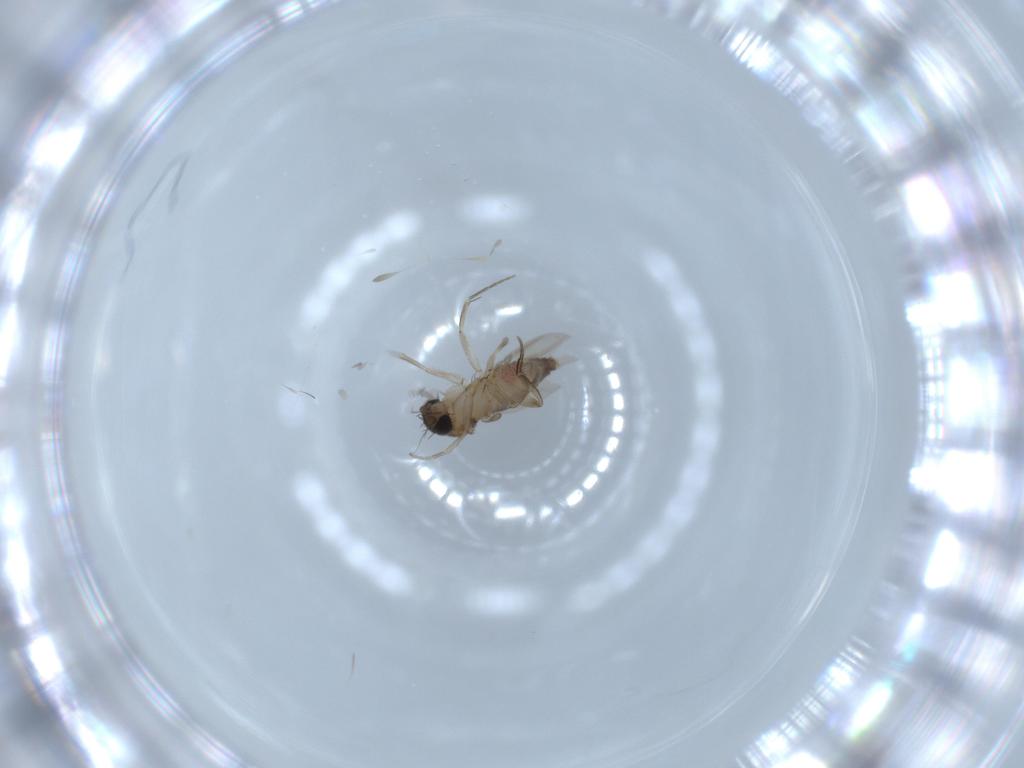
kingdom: Animalia
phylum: Arthropoda
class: Insecta
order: Diptera
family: Phoridae
